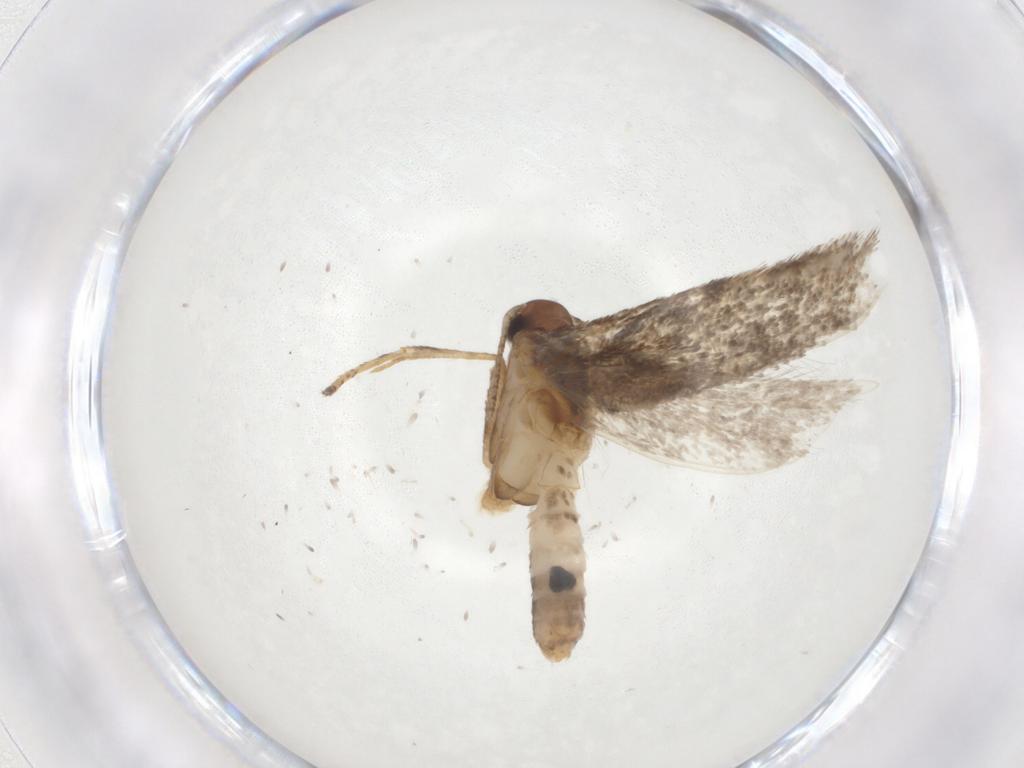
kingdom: Animalia
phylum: Arthropoda
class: Insecta
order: Lepidoptera
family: Gelechiidae
